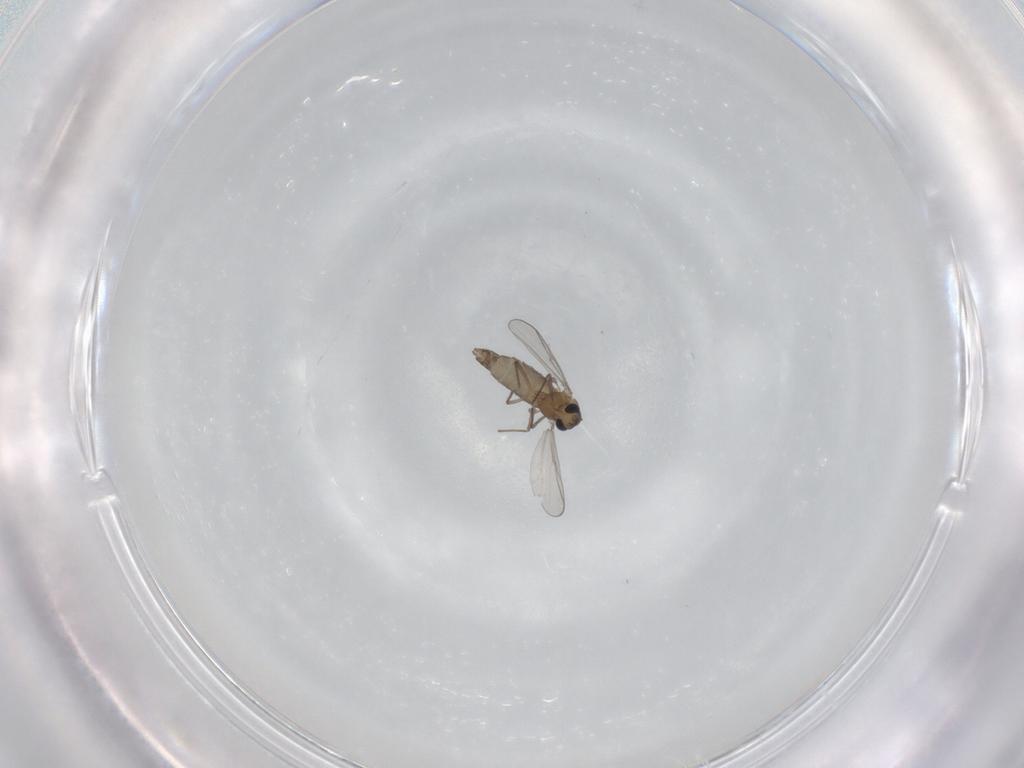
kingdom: Animalia
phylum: Arthropoda
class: Insecta
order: Diptera
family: Chironomidae
